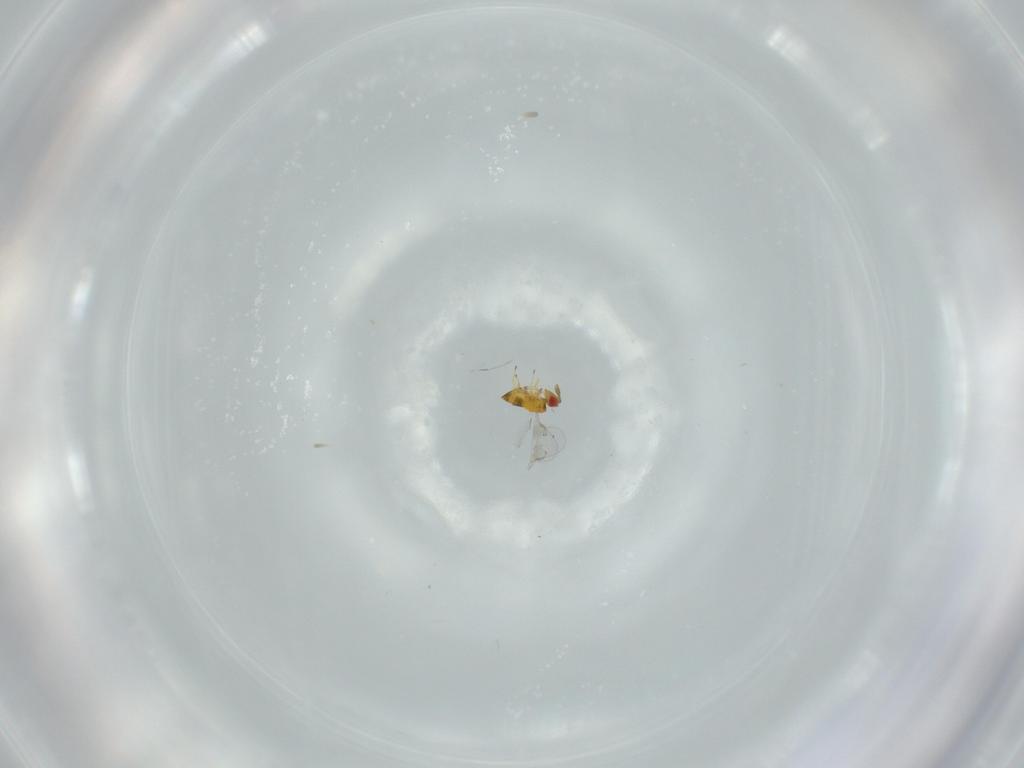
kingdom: Animalia
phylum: Arthropoda
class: Insecta
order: Hymenoptera
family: Trichogrammatidae
